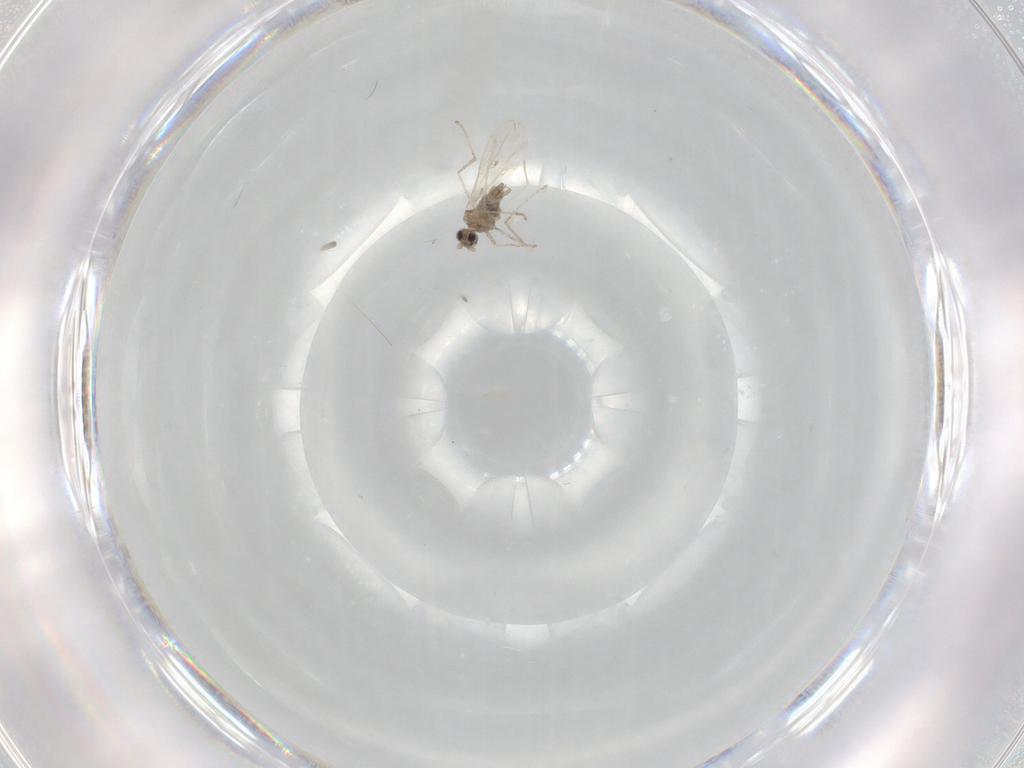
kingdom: Animalia
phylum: Arthropoda
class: Insecta
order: Diptera
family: Cecidomyiidae
